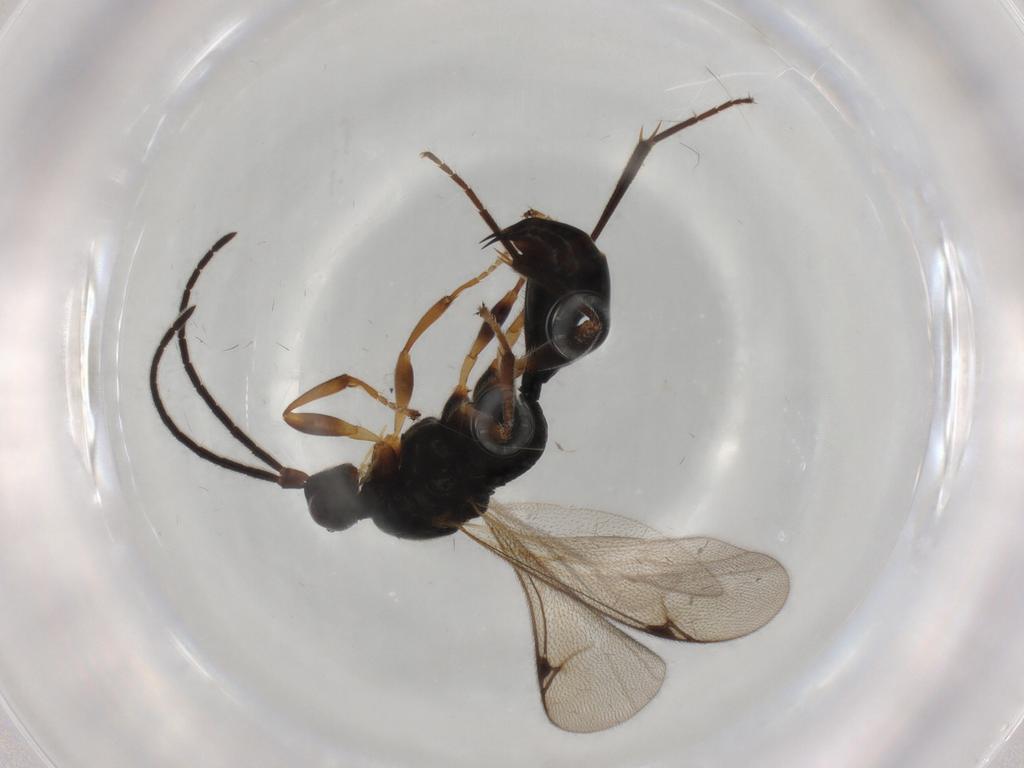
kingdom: Animalia
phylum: Arthropoda
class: Insecta
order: Hymenoptera
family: Proctotrupidae
